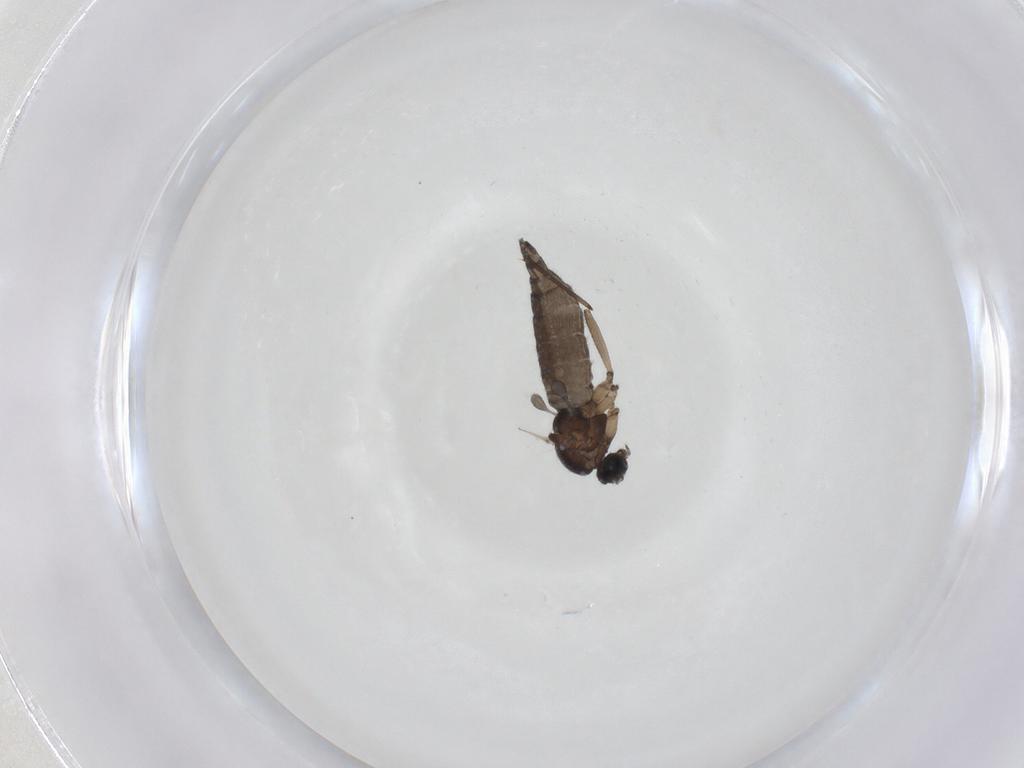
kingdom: Animalia
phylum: Arthropoda
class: Insecta
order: Diptera
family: Sciaridae
